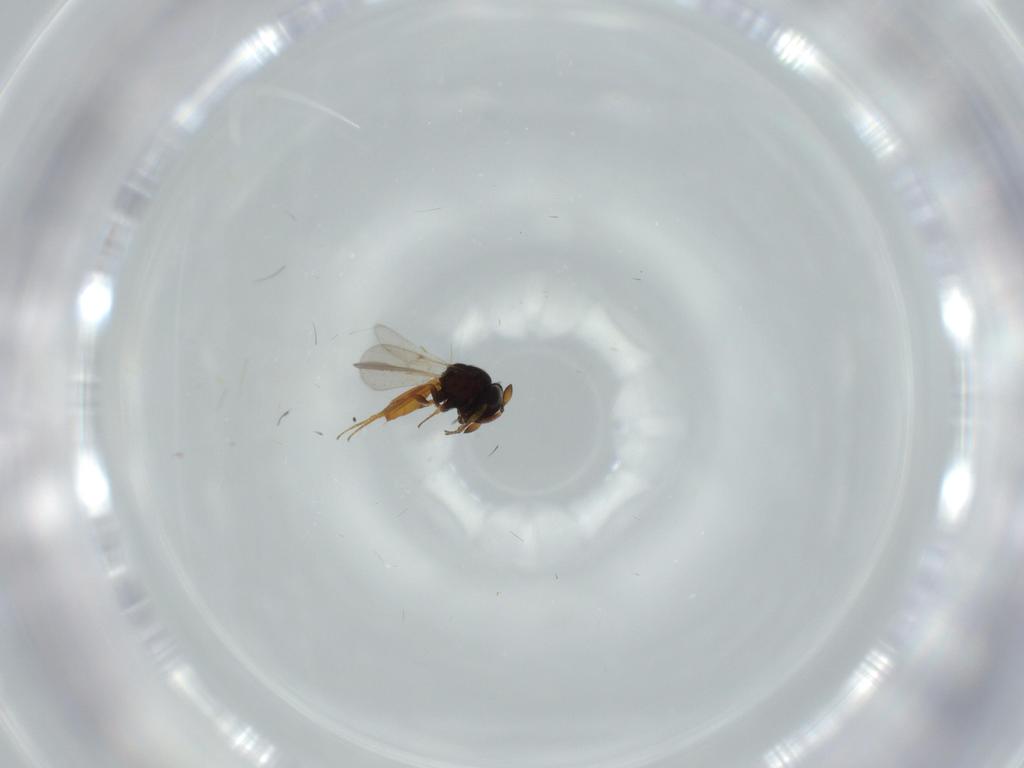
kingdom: Animalia
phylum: Arthropoda
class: Insecta
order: Hymenoptera
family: Scelionidae
